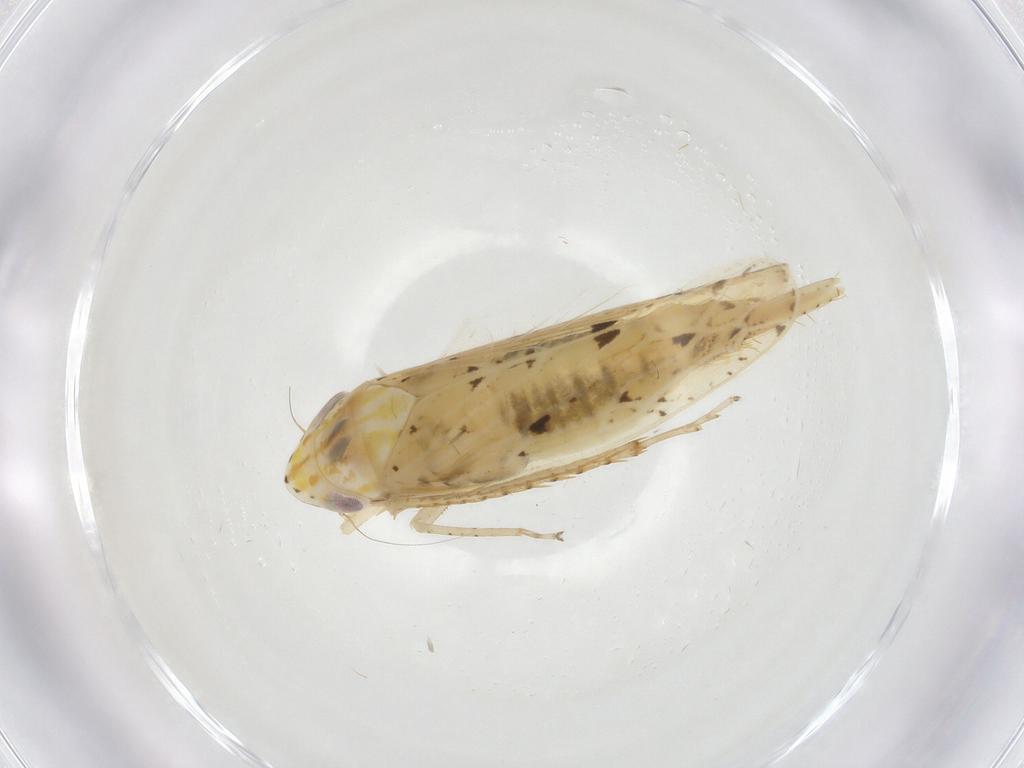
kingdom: Animalia
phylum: Arthropoda
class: Insecta
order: Hemiptera
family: Cicadellidae
